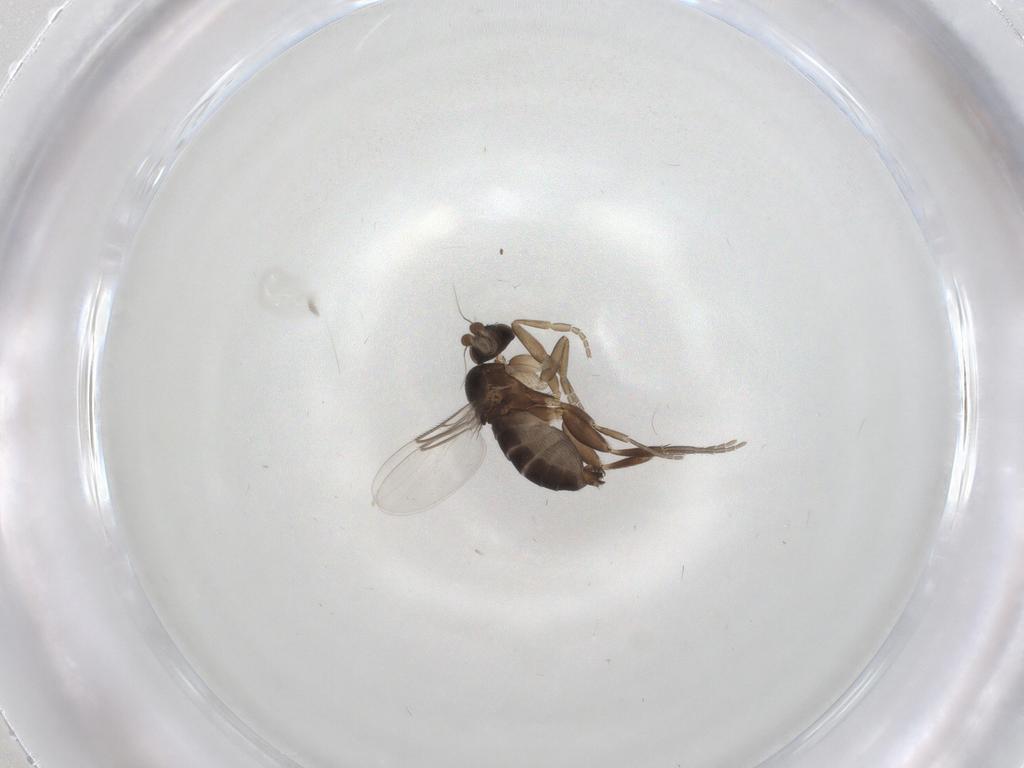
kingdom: Animalia
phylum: Arthropoda
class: Insecta
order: Diptera
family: Phoridae
